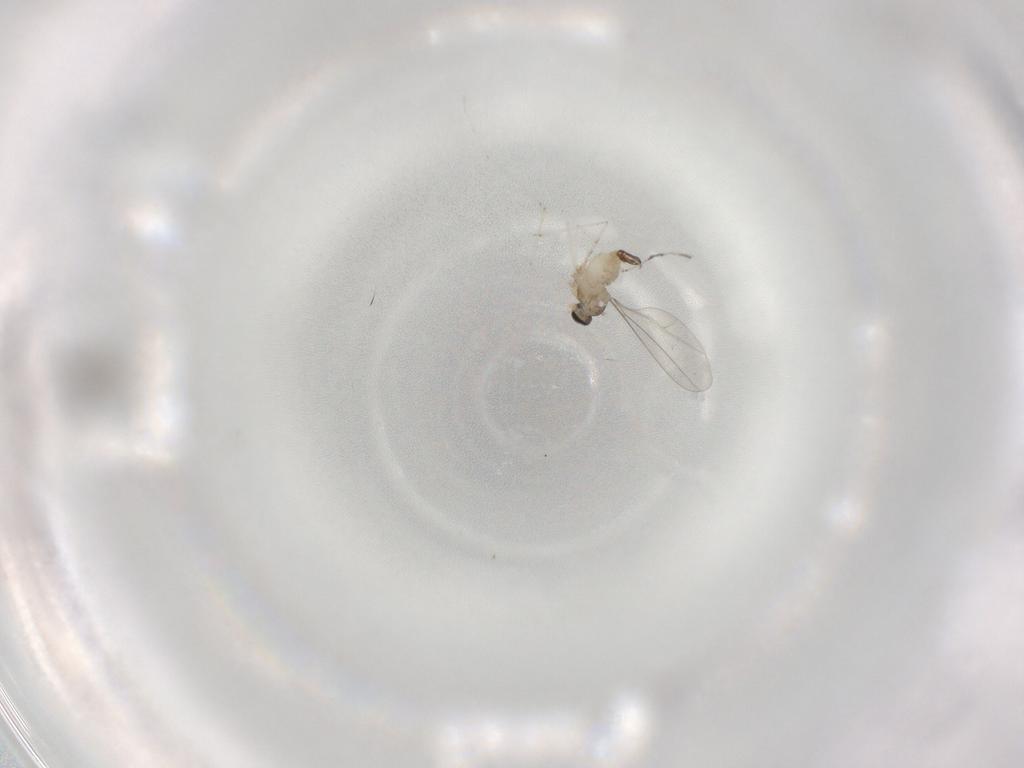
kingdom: Animalia
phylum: Arthropoda
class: Insecta
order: Diptera
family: Cecidomyiidae
